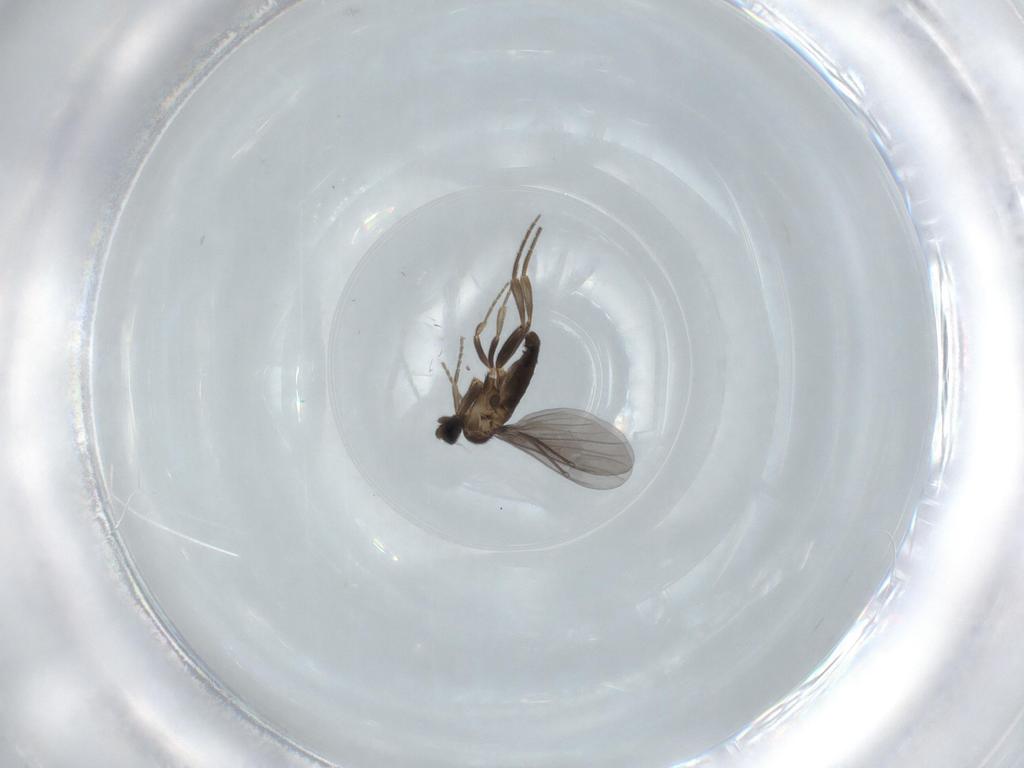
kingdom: Animalia
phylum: Arthropoda
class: Insecta
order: Diptera
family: Phoridae
